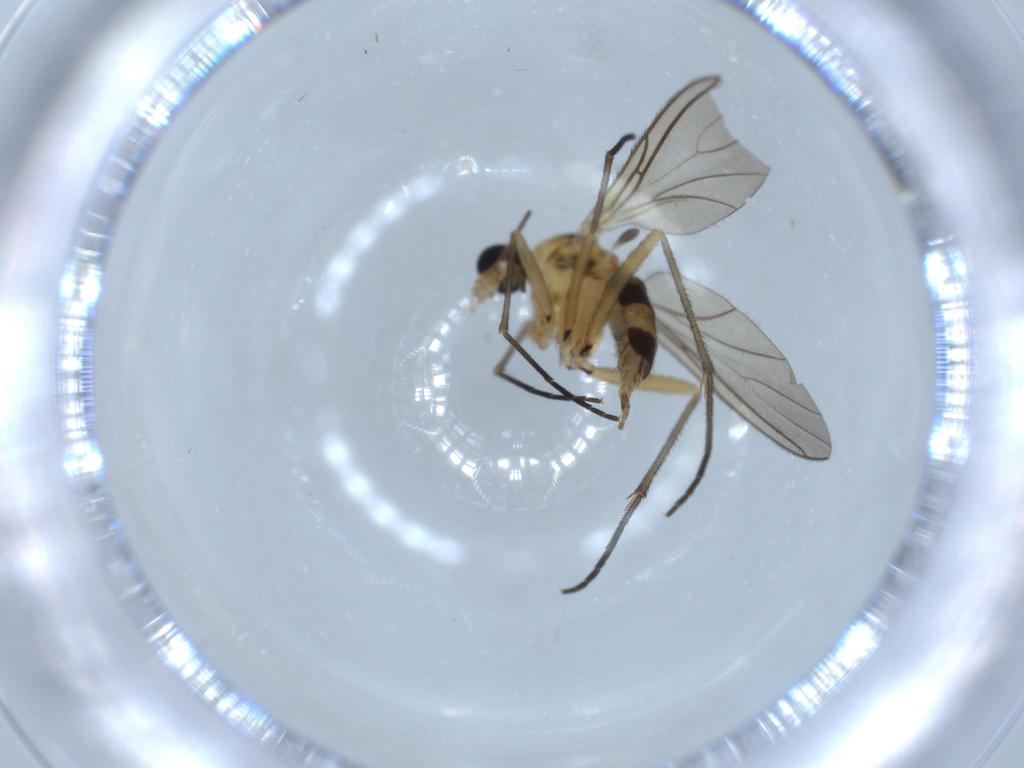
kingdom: Animalia
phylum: Arthropoda
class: Insecta
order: Diptera
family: Sciaridae
